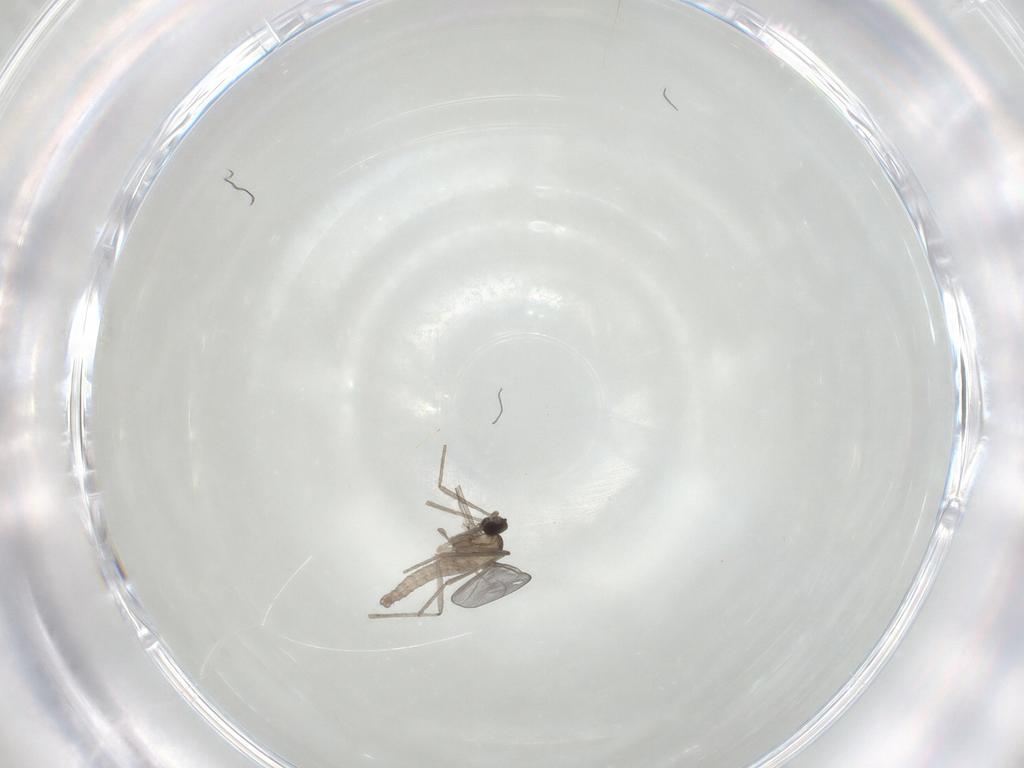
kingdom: Animalia
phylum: Arthropoda
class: Insecta
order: Diptera
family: Cecidomyiidae
